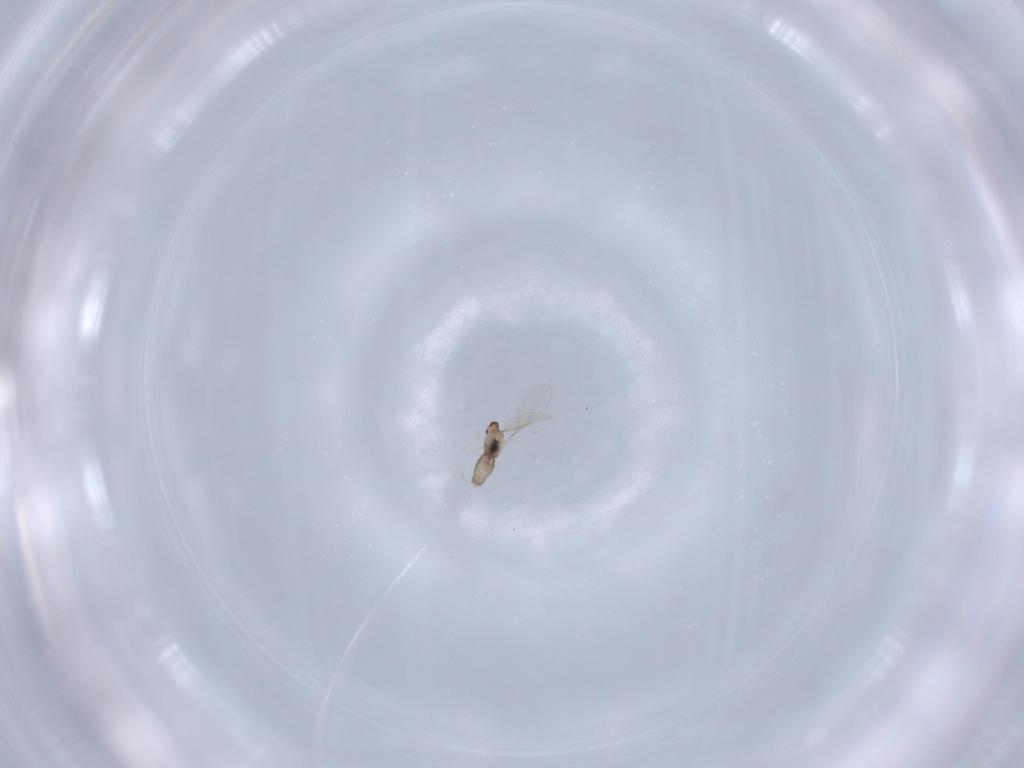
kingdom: Animalia
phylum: Arthropoda
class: Insecta
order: Diptera
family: Cecidomyiidae
